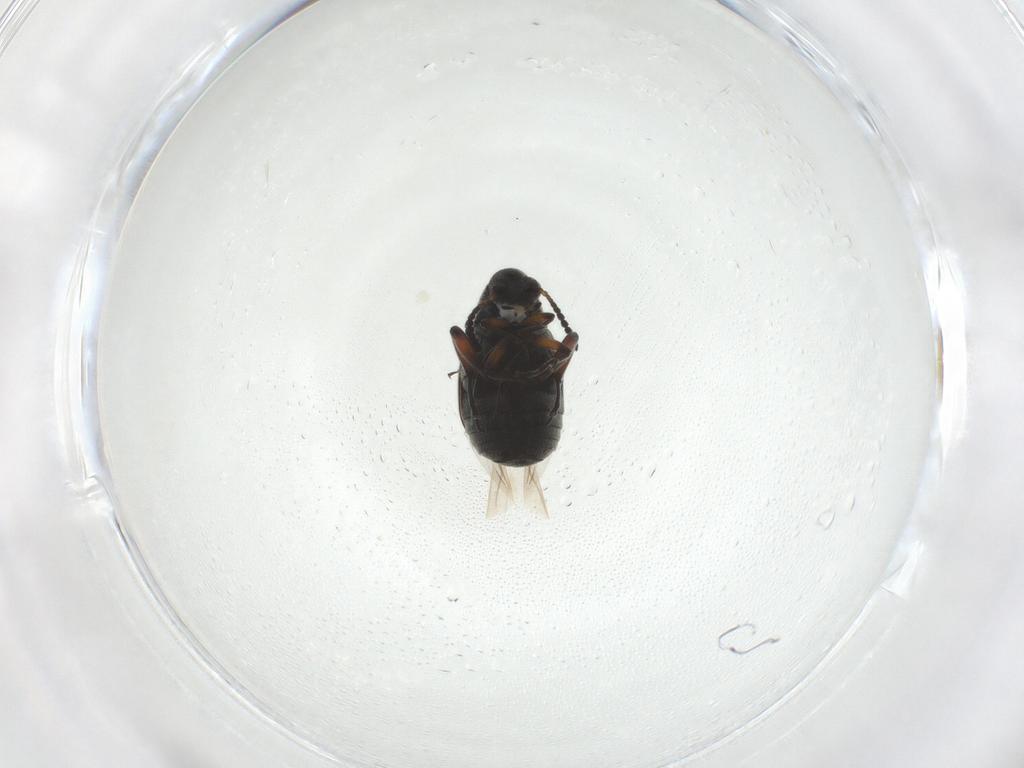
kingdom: Animalia
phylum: Arthropoda
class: Insecta
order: Coleoptera
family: Chrysomelidae
